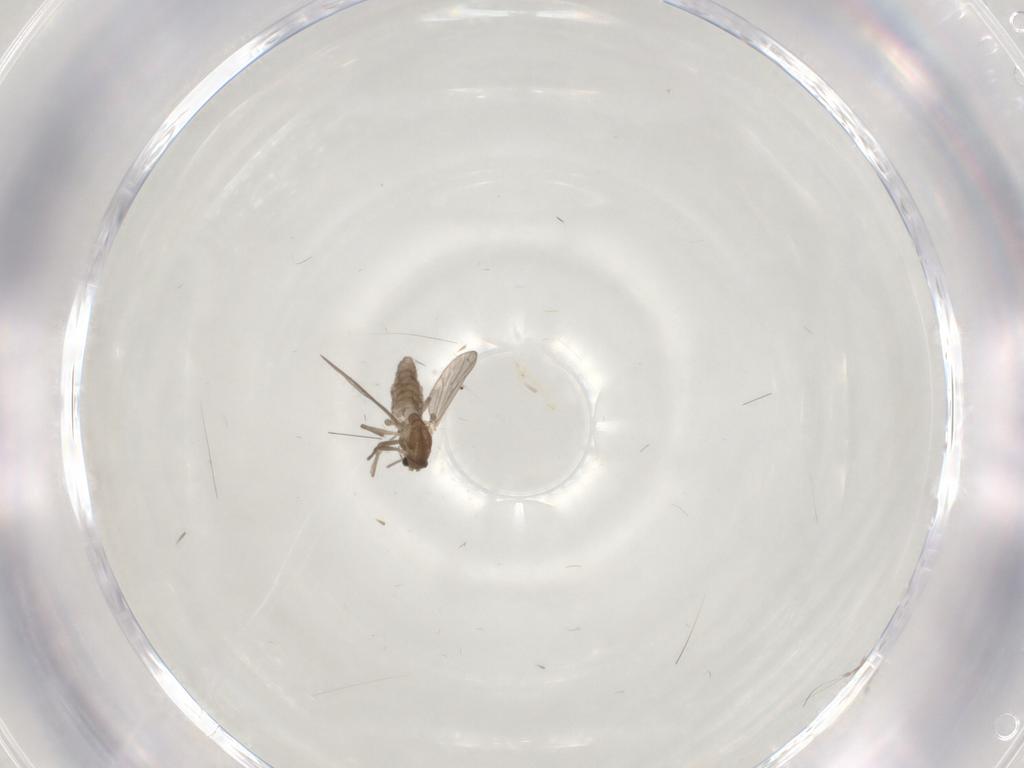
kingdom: Animalia
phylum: Arthropoda
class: Insecta
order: Diptera
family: Chironomidae
